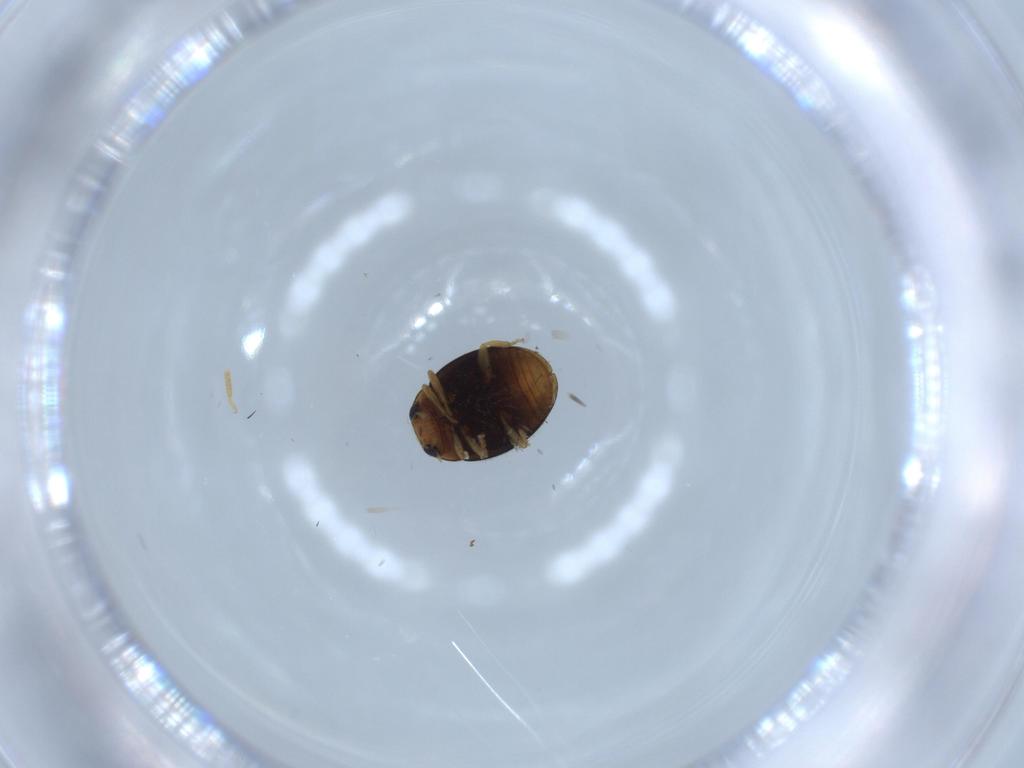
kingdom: Animalia
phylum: Arthropoda
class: Insecta
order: Coleoptera
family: Coccinellidae
